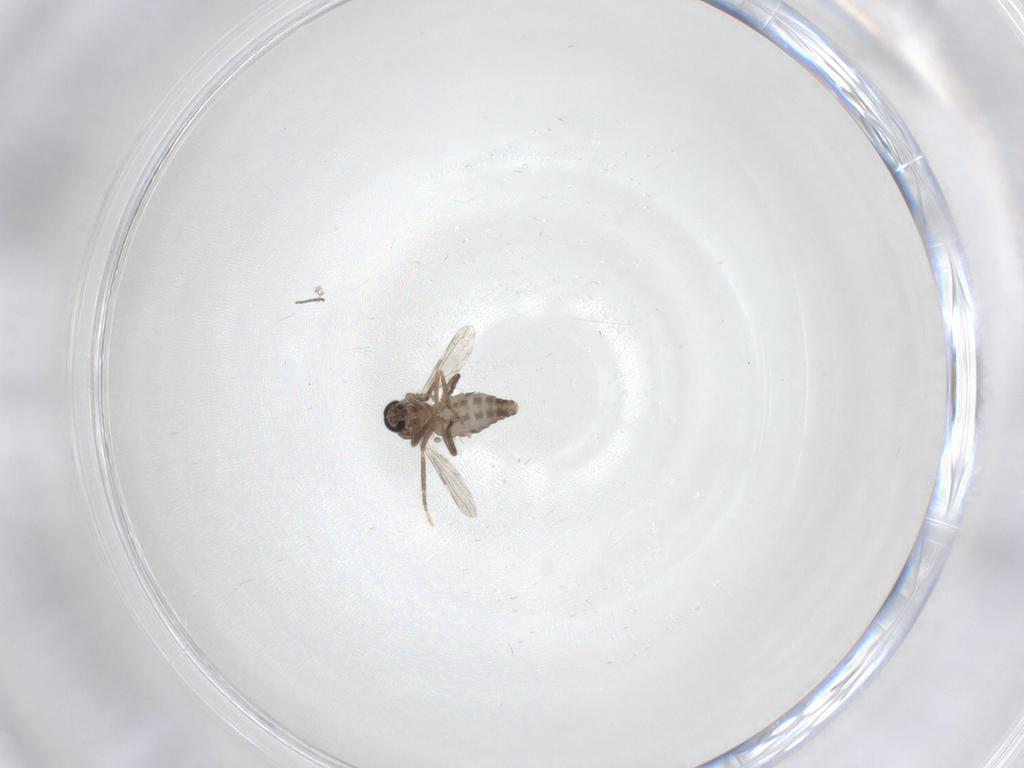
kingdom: Animalia
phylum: Arthropoda
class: Insecta
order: Diptera
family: Ceratopogonidae
